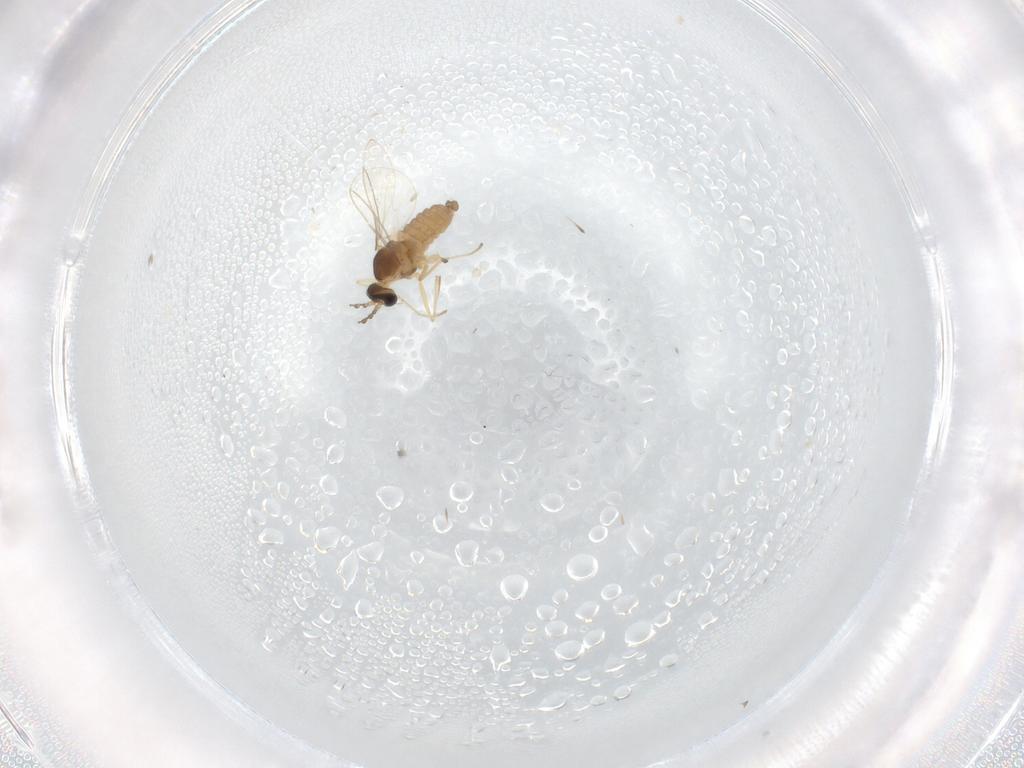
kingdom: Animalia
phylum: Arthropoda
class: Insecta
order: Diptera
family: Cecidomyiidae
